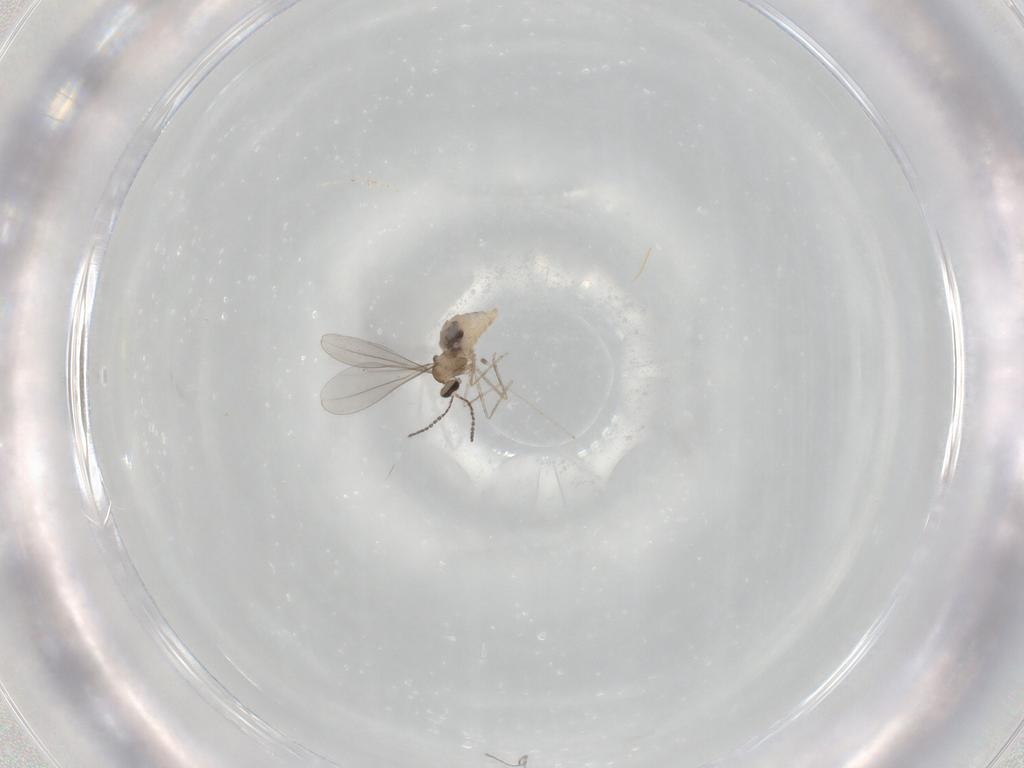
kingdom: Animalia
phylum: Arthropoda
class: Insecta
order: Diptera
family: Cecidomyiidae
